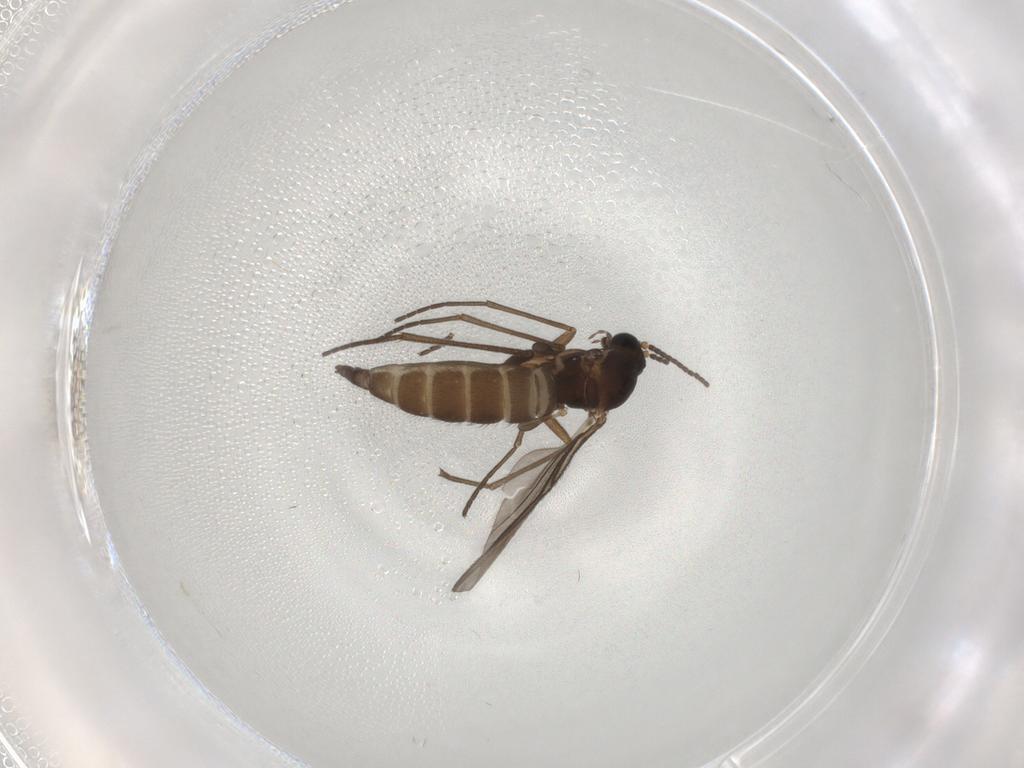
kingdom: Animalia
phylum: Arthropoda
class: Insecta
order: Diptera
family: Sciaridae
